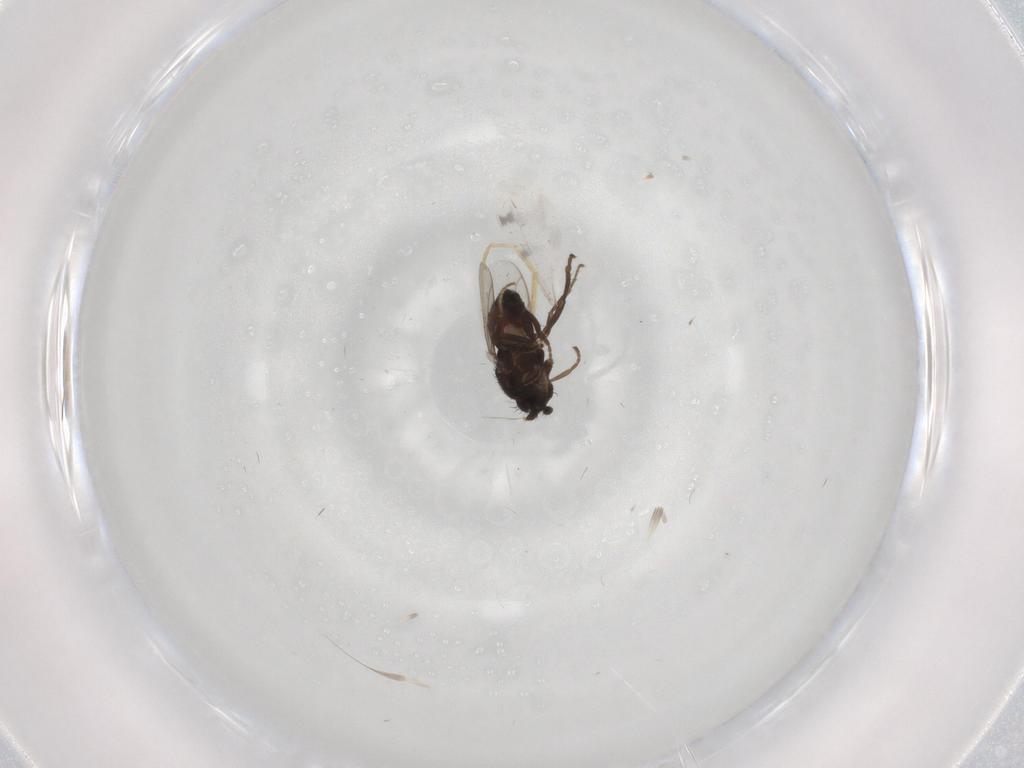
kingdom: Animalia
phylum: Arthropoda
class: Insecta
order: Diptera
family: Chironomidae
